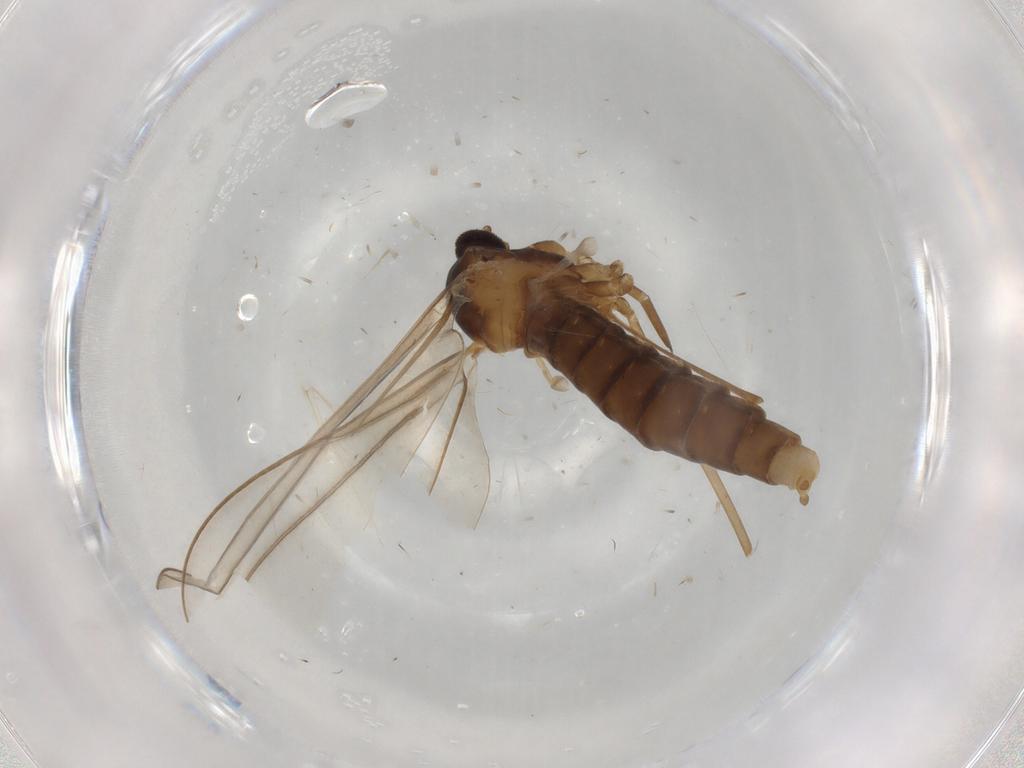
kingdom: Animalia
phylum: Arthropoda
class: Insecta
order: Diptera
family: Cecidomyiidae
